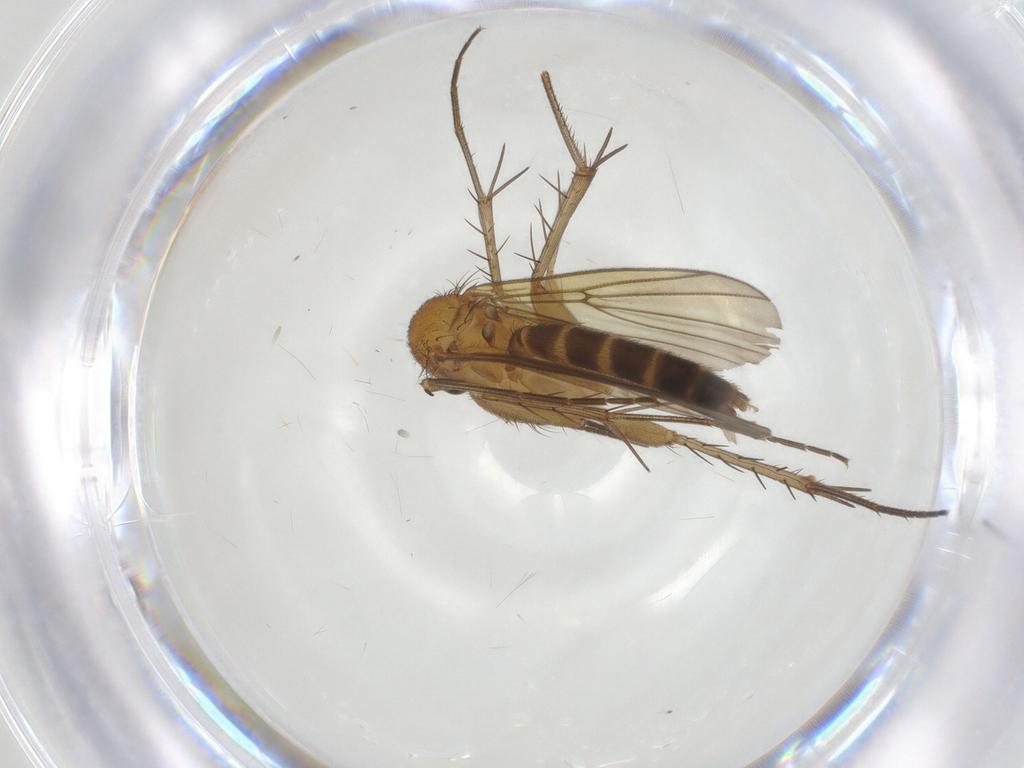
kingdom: Animalia
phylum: Arthropoda
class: Insecta
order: Diptera
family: Mycetophilidae
